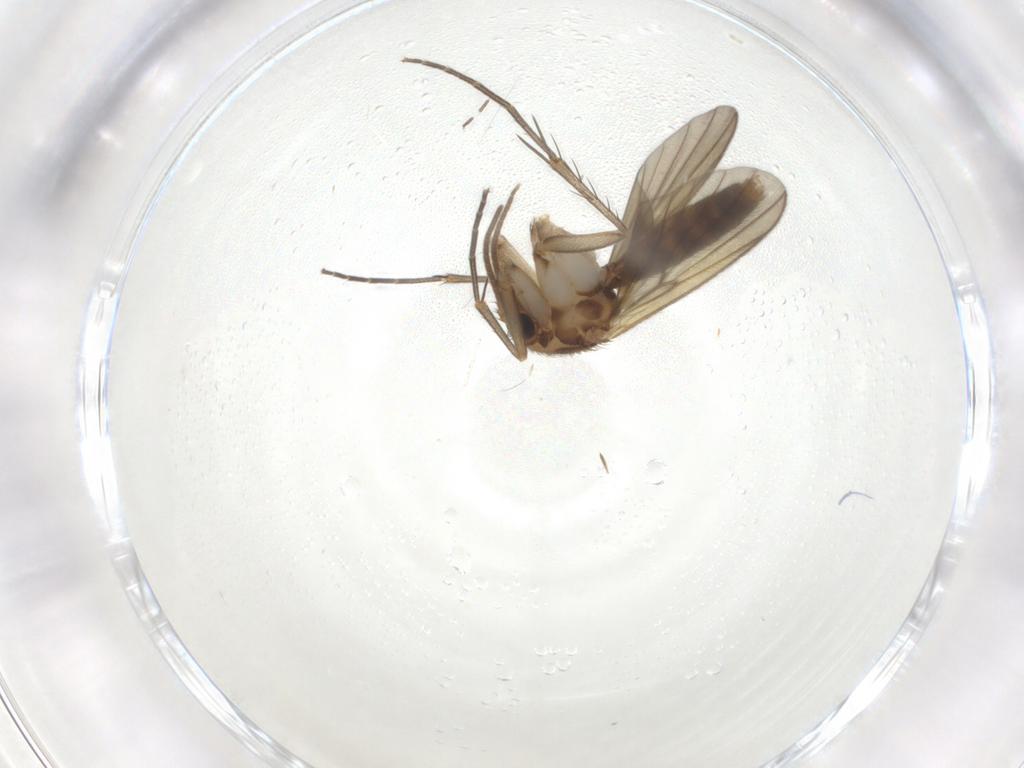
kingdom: Animalia
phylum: Arthropoda
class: Insecta
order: Diptera
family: Mycetophilidae
